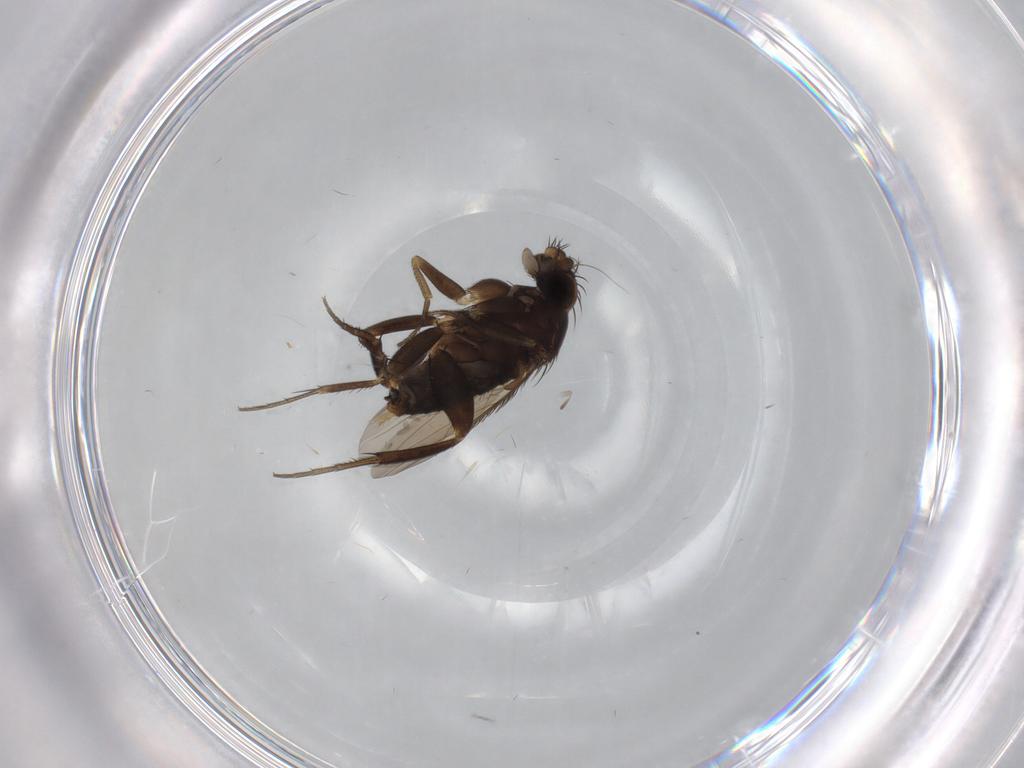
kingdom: Animalia
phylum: Arthropoda
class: Insecta
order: Diptera
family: Phoridae
